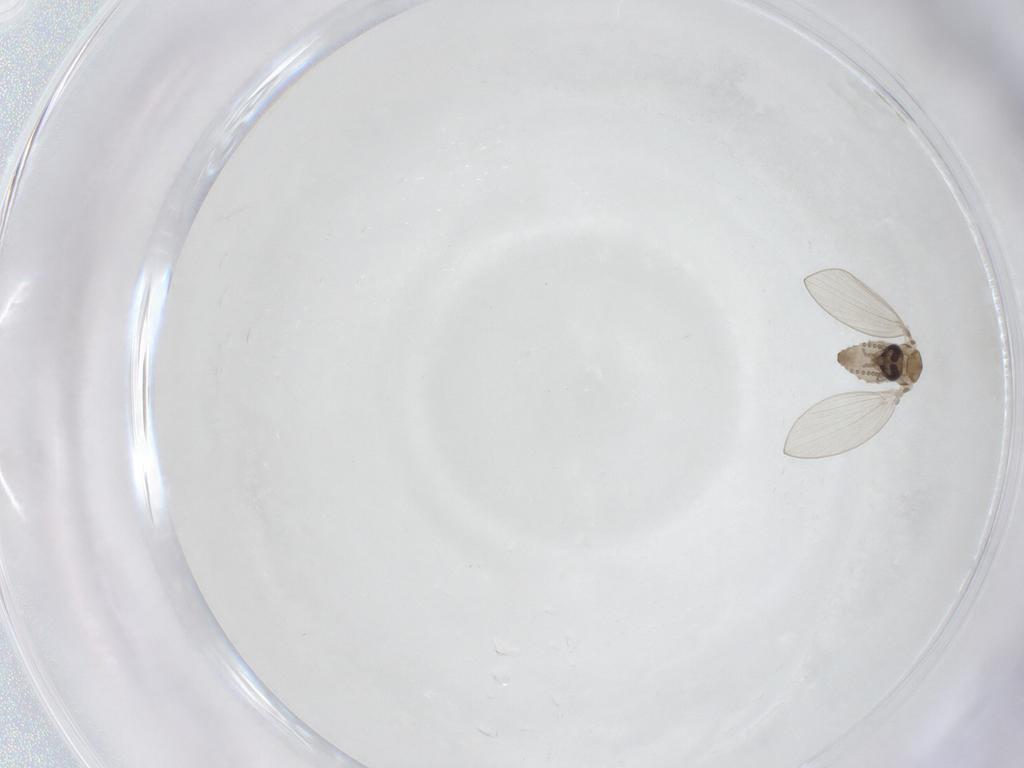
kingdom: Animalia
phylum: Arthropoda
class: Insecta
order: Diptera
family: Psychodidae
